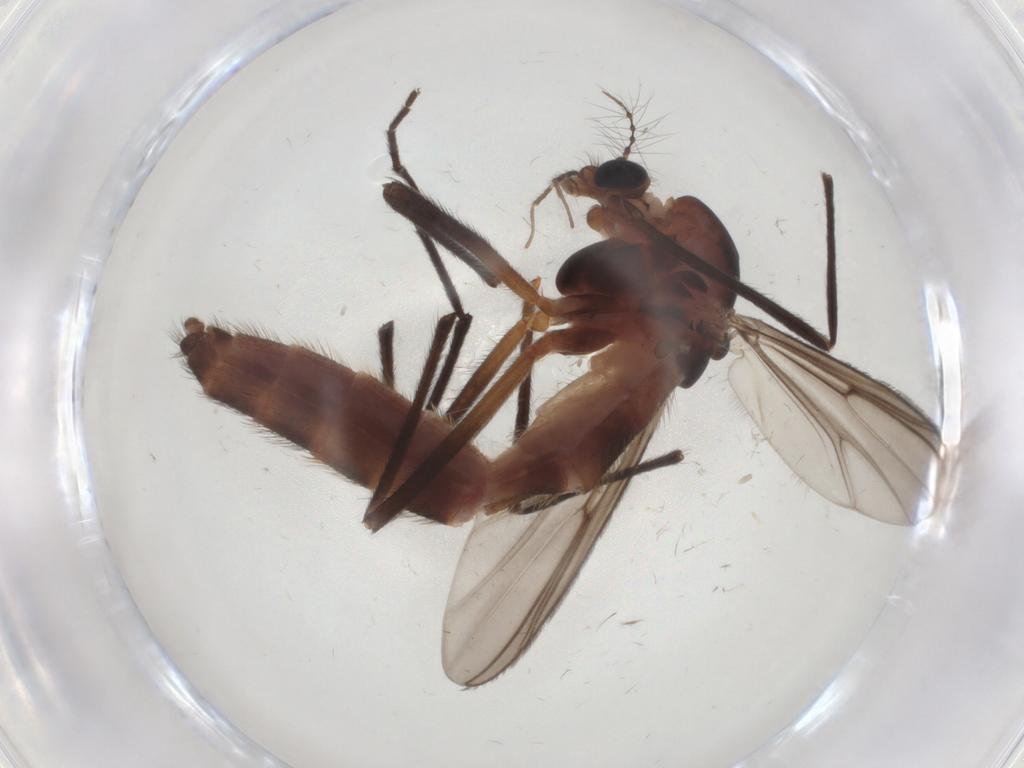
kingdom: Animalia
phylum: Arthropoda
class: Insecta
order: Diptera
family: Chironomidae
